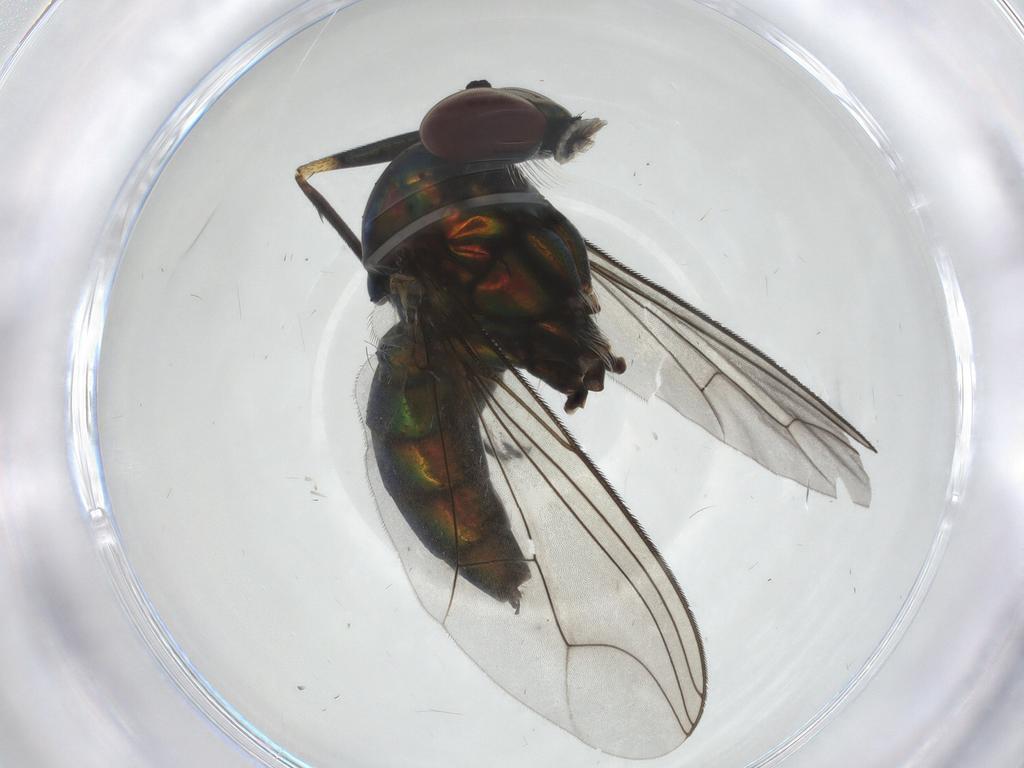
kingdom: Animalia
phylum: Arthropoda
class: Insecta
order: Diptera
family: Dolichopodidae
